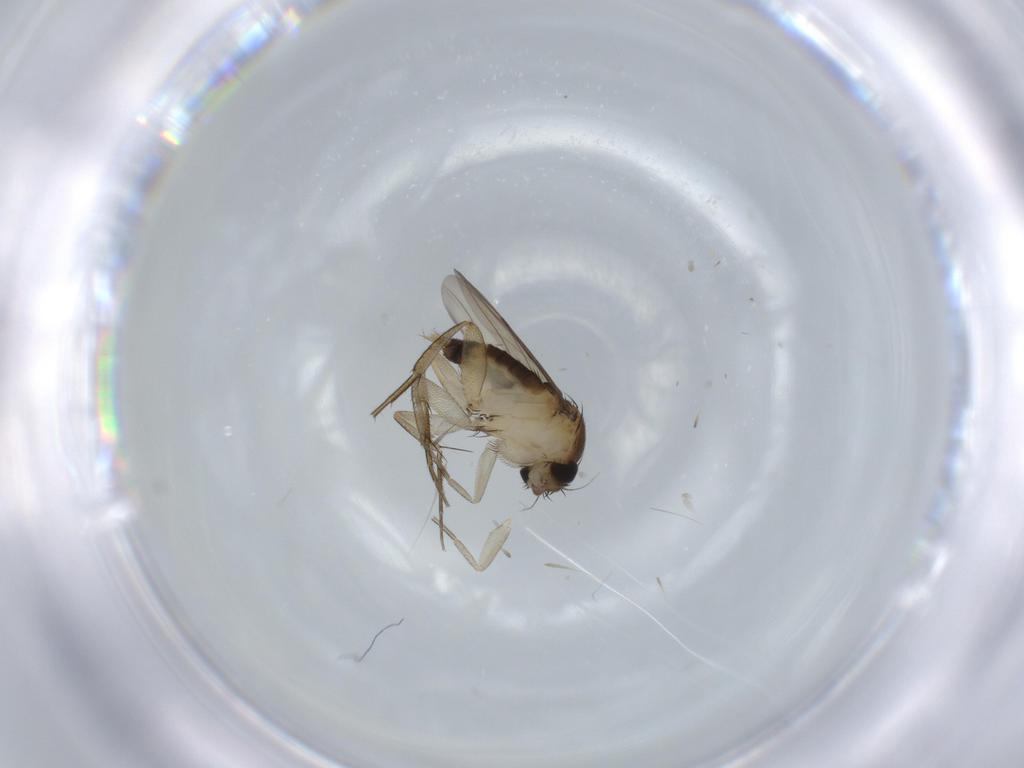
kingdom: Animalia
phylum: Arthropoda
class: Insecta
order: Diptera
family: Phoridae
